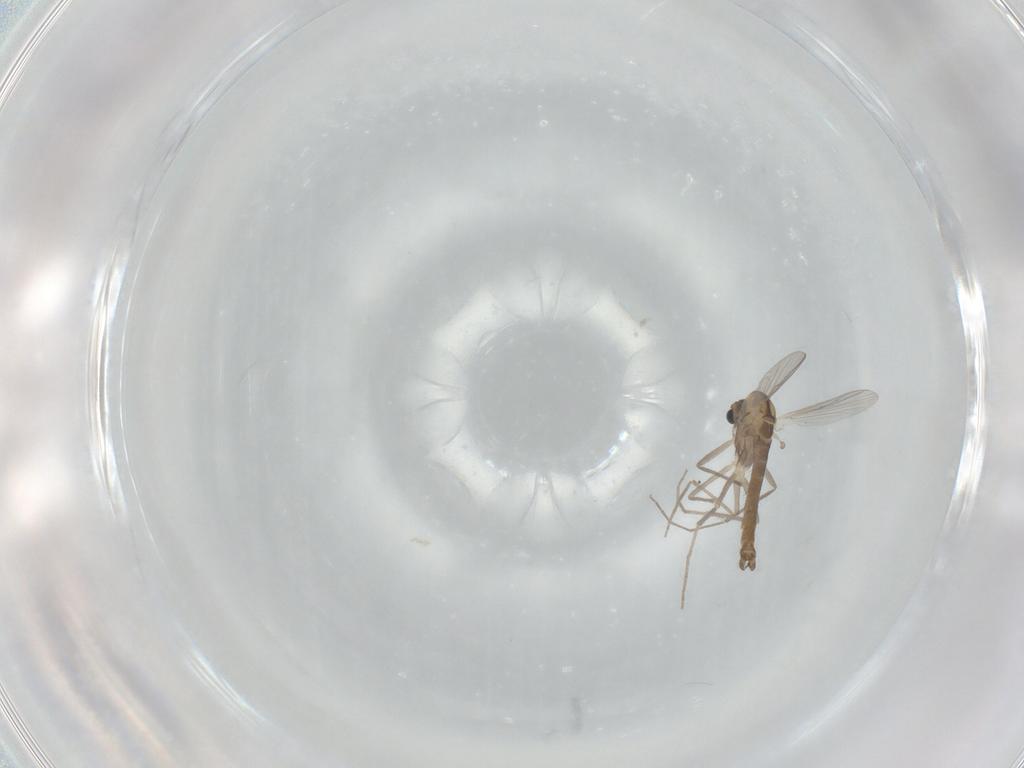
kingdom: Animalia
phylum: Arthropoda
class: Insecta
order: Diptera
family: Chironomidae
